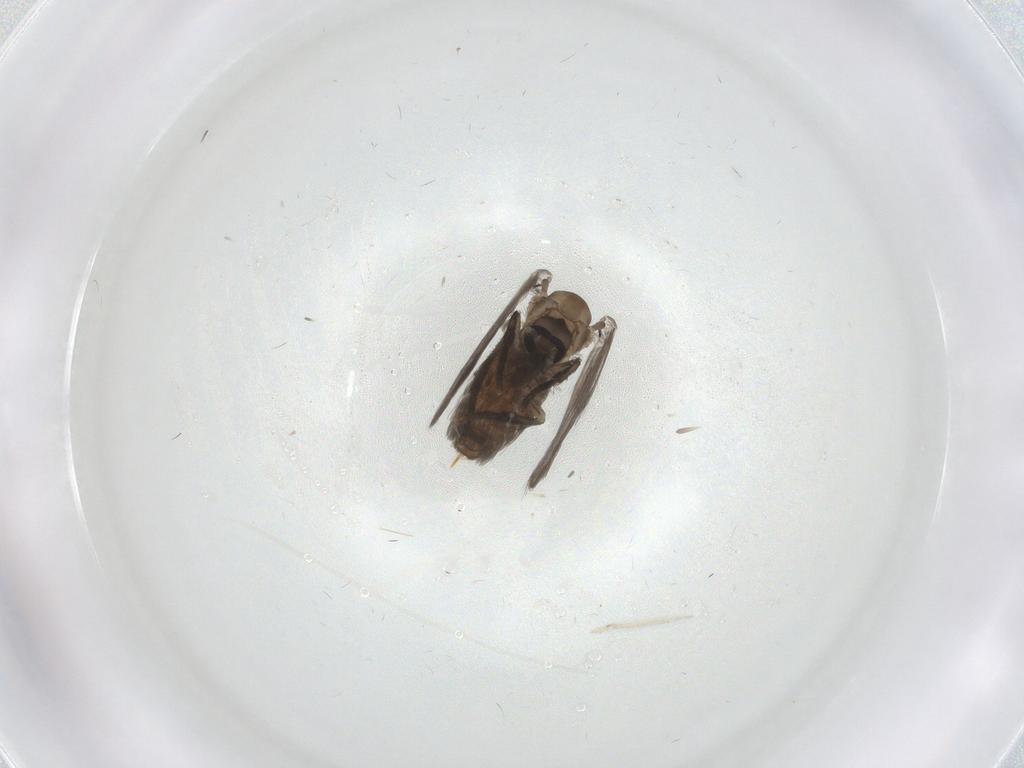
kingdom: Animalia
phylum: Arthropoda
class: Insecta
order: Diptera
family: Psychodidae
